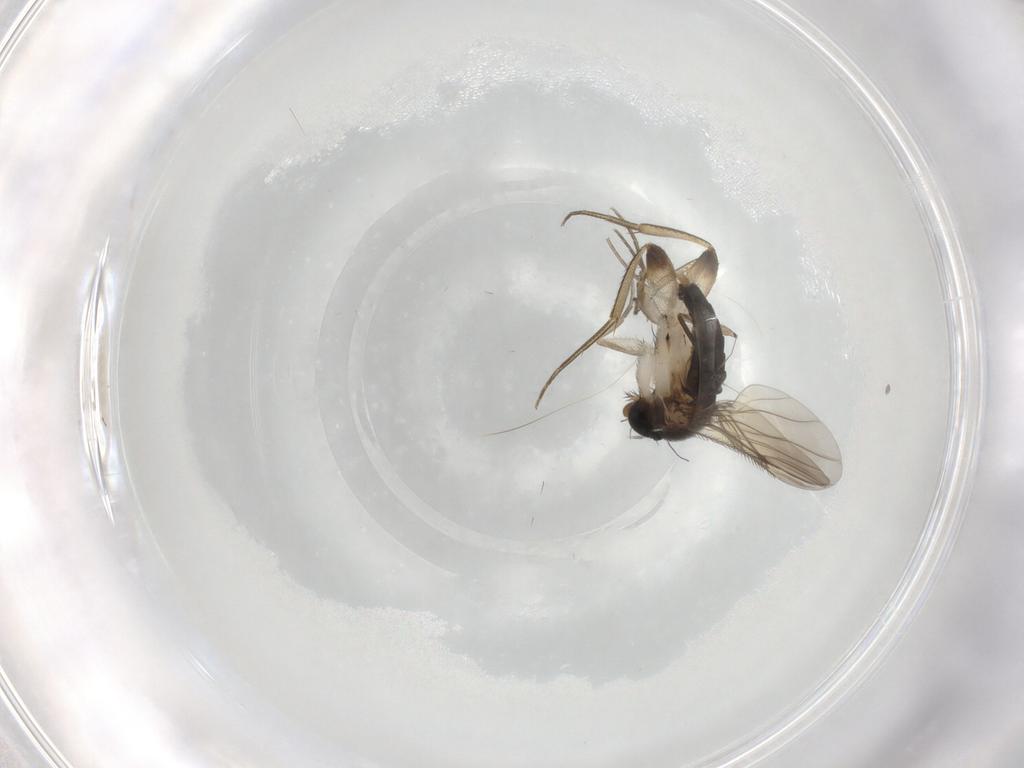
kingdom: Animalia
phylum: Arthropoda
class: Insecta
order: Diptera
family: Phoridae
